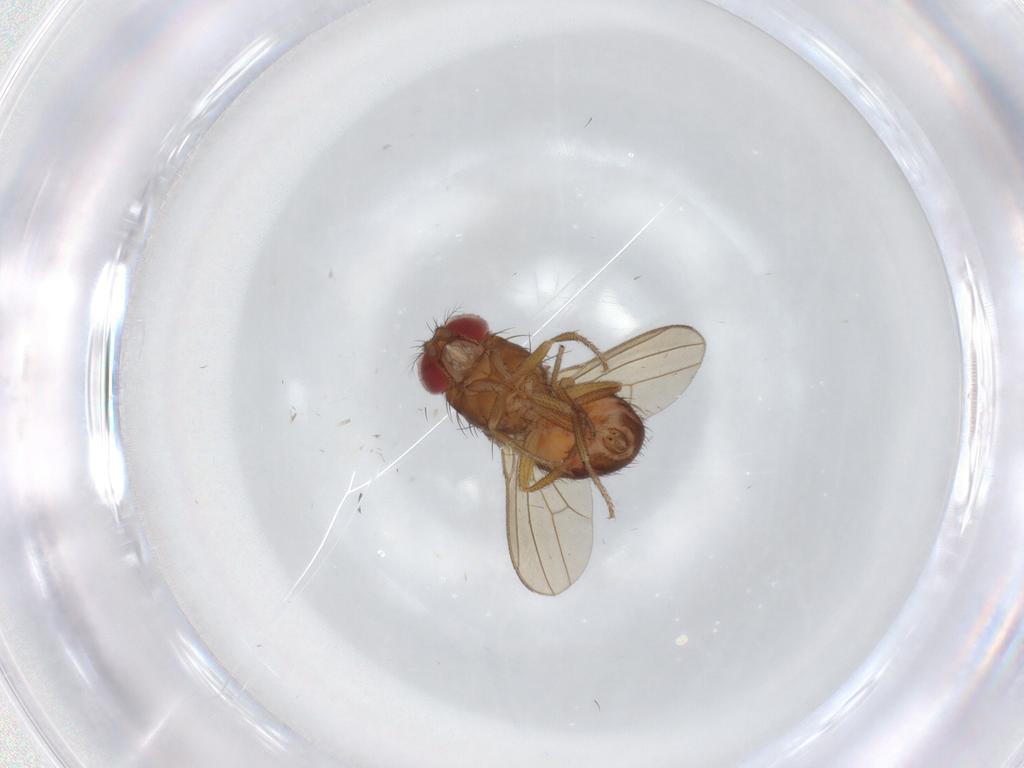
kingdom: Animalia
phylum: Arthropoda
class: Insecta
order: Diptera
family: Drosophilidae
